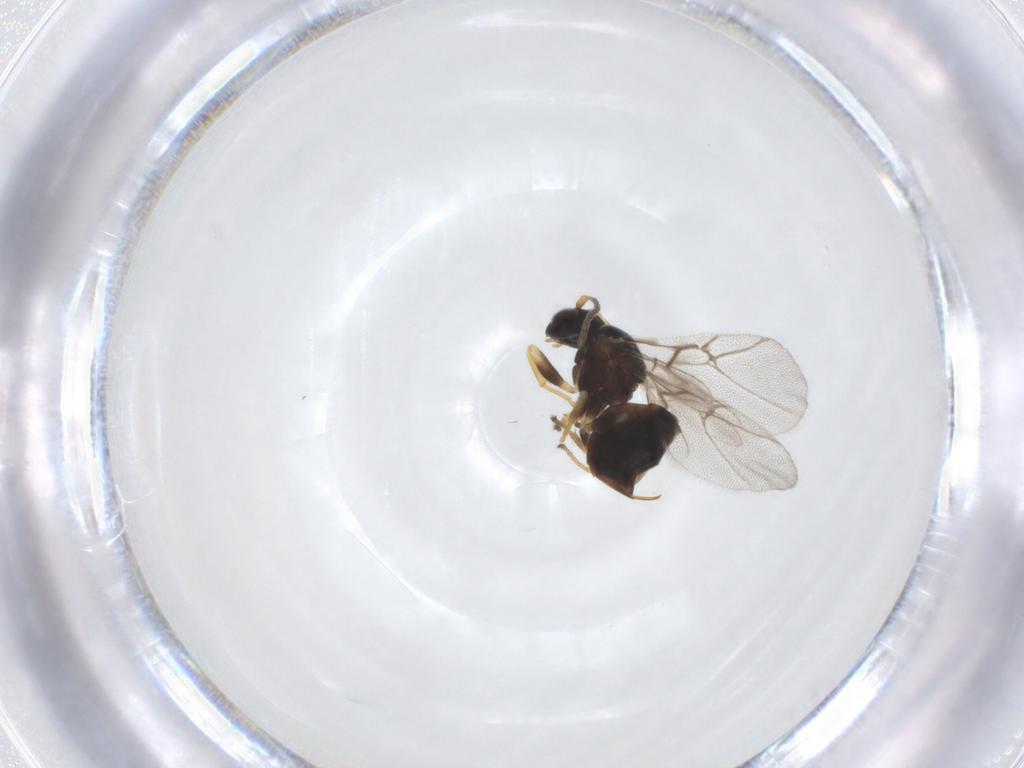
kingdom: Animalia
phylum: Arthropoda
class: Insecta
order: Hymenoptera
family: Cynipidae
